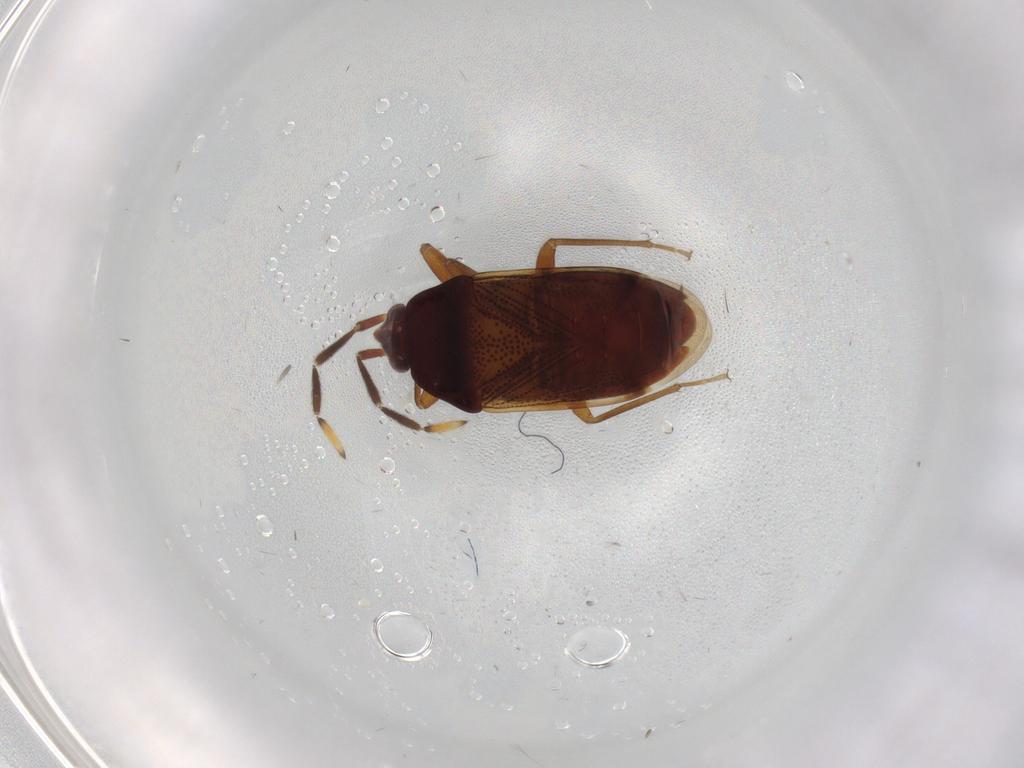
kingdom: Animalia
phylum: Arthropoda
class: Insecta
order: Hemiptera
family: Rhyparochromidae
